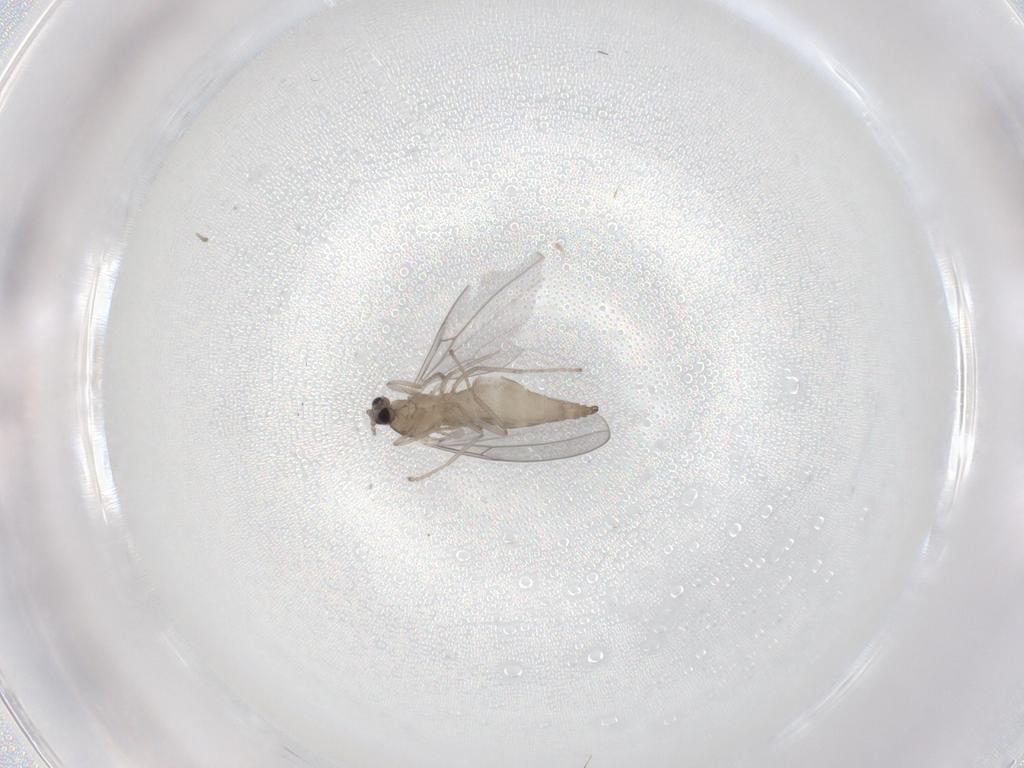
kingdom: Animalia
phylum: Arthropoda
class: Insecta
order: Diptera
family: Cecidomyiidae
